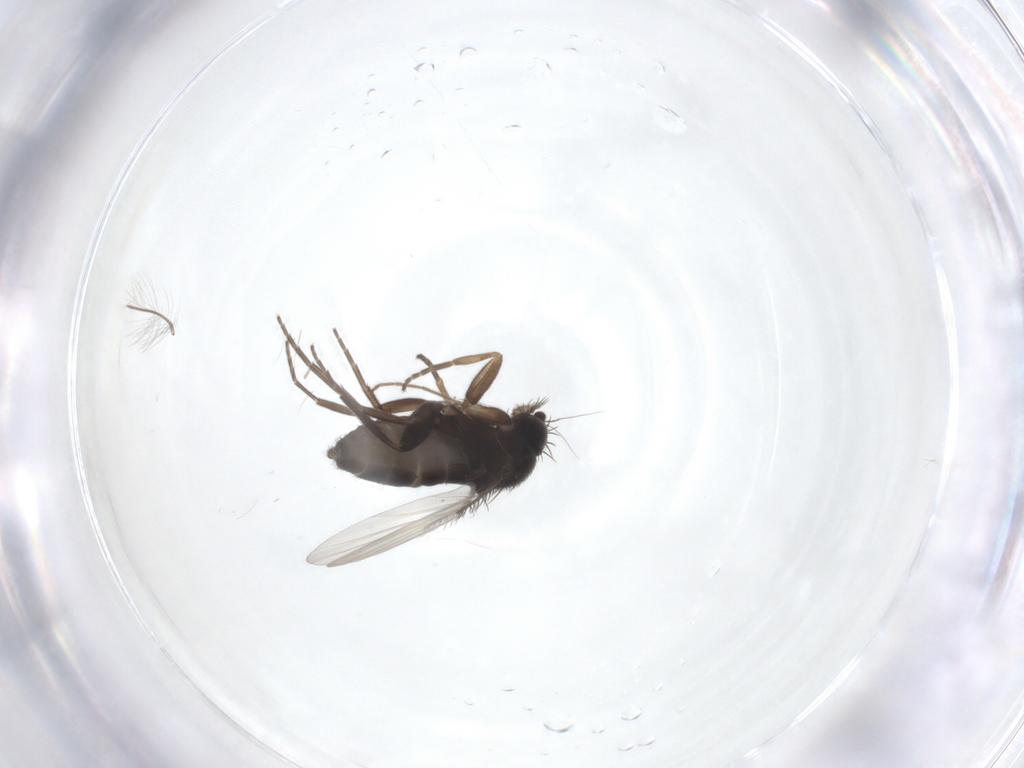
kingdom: Animalia
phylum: Arthropoda
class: Insecta
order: Diptera
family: Phoridae
